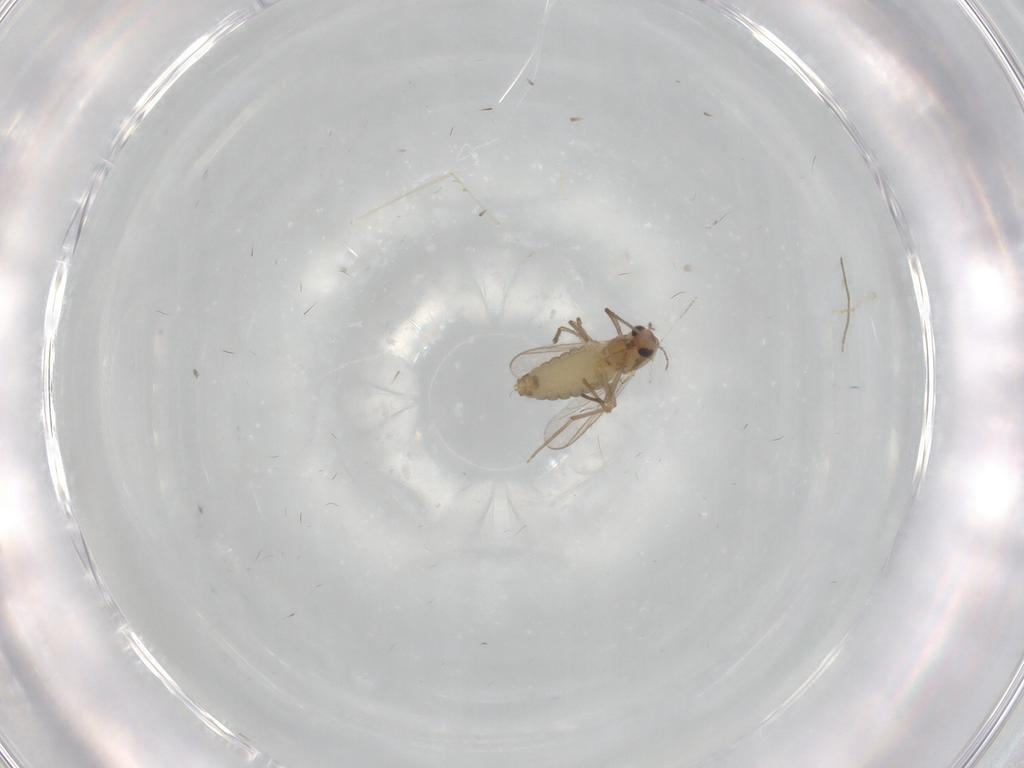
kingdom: Animalia
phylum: Arthropoda
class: Insecta
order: Diptera
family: Chironomidae
